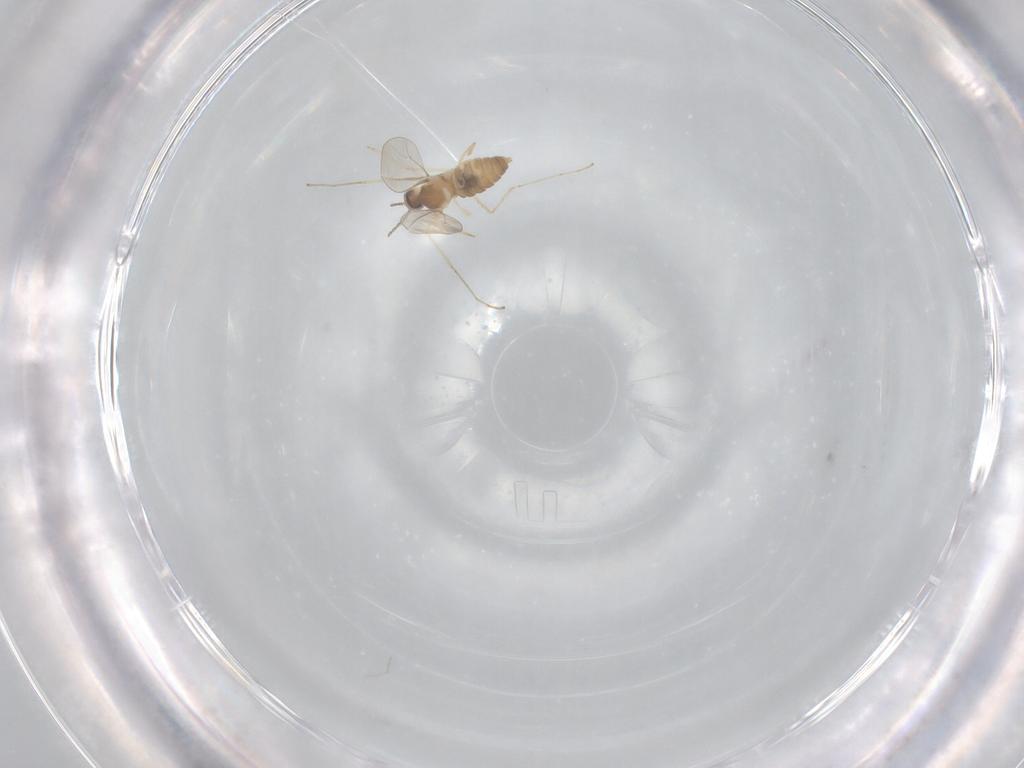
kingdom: Animalia
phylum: Arthropoda
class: Insecta
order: Diptera
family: Cecidomyiidae
